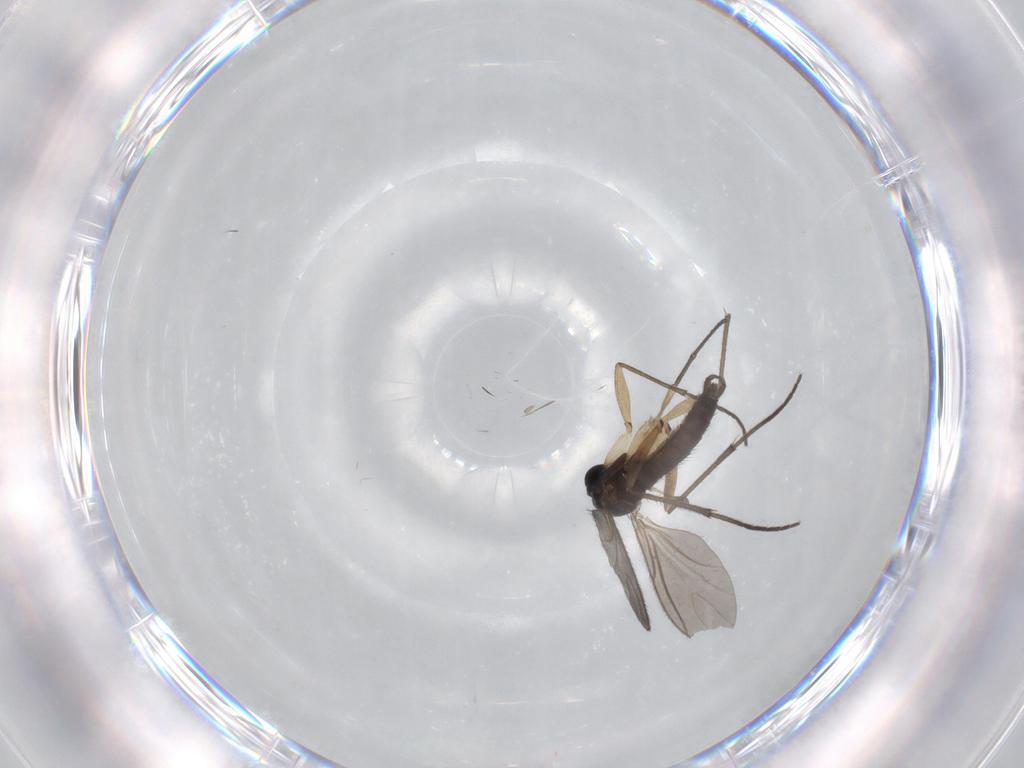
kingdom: Animalia
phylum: Arthropoda
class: Insecta
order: Diptera
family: Sciaridae
